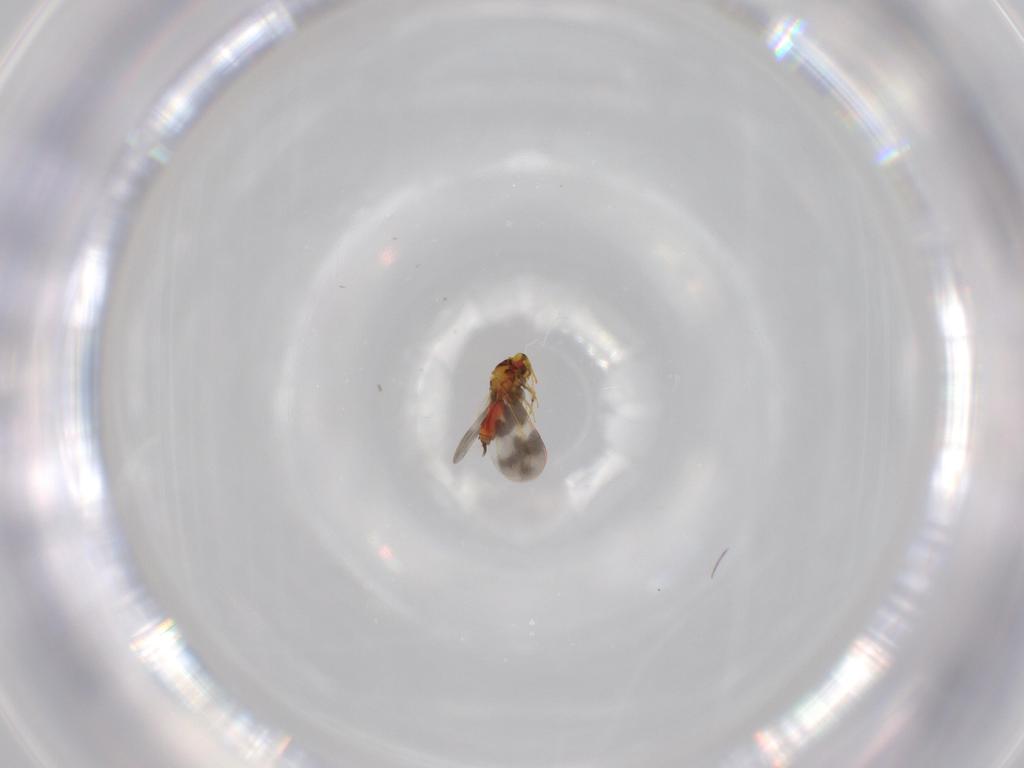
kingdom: Animalia
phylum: Arthropoda
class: Insecta
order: Hemiptera
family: Aleyrodidae
